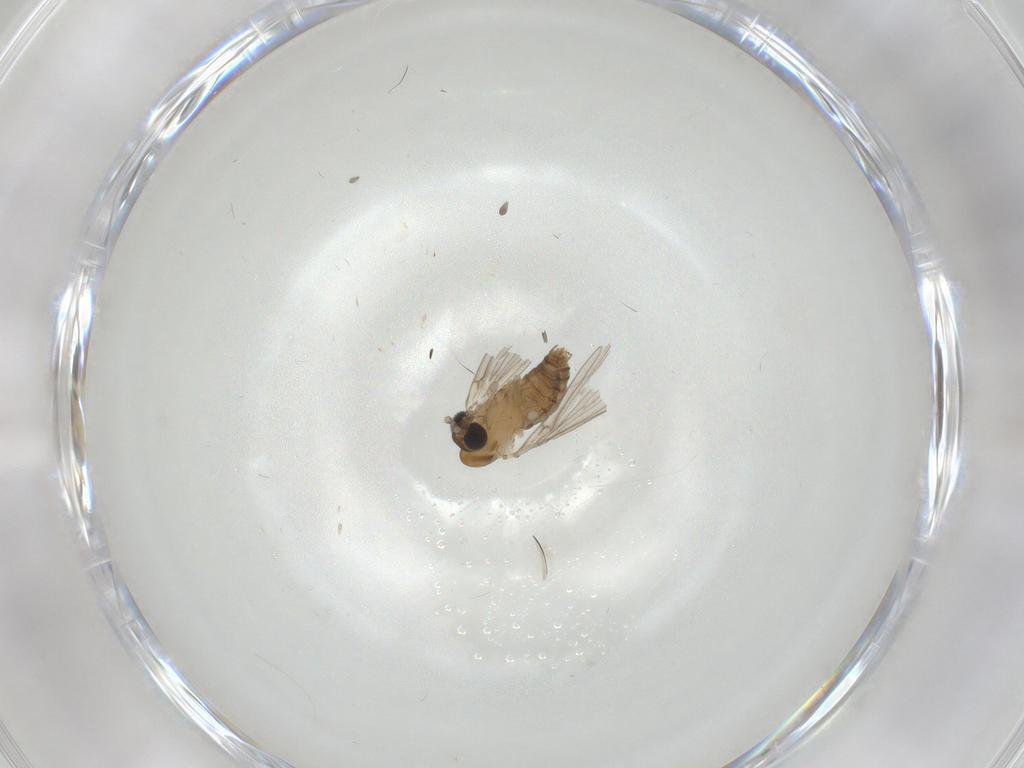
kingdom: Animalia
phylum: Arthropoda
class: Insecta
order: Diptera
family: Psychodidae
